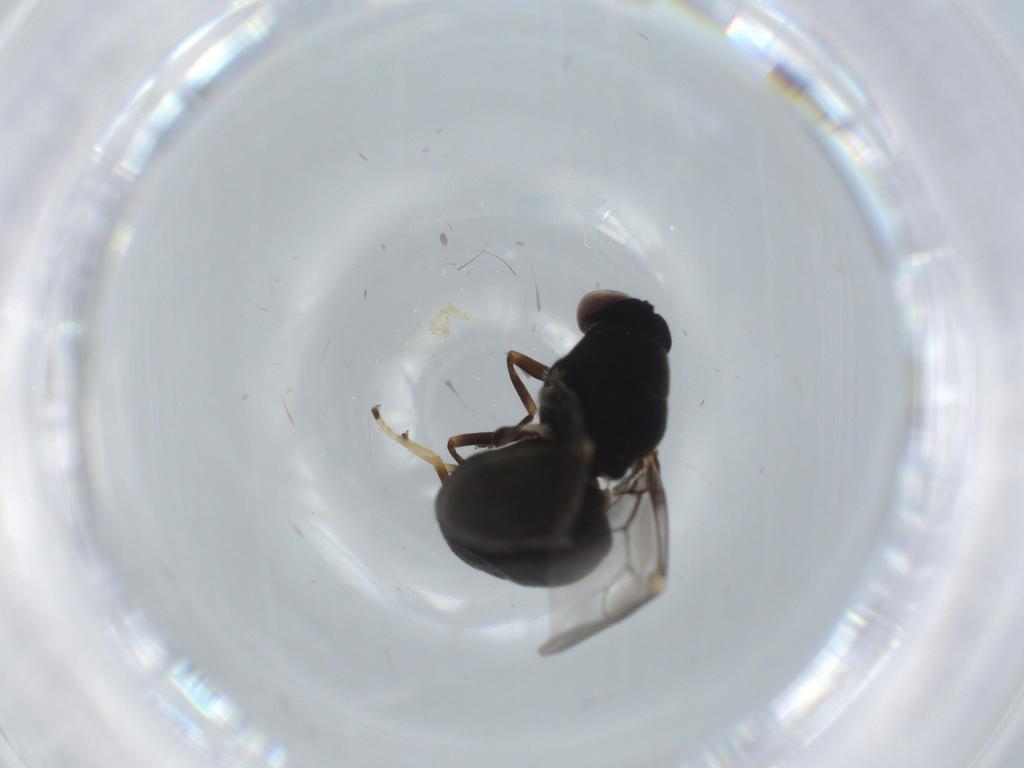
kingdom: Animalia
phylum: Arthropoda
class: Insecta
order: Diptera
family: Stratiomyidae
